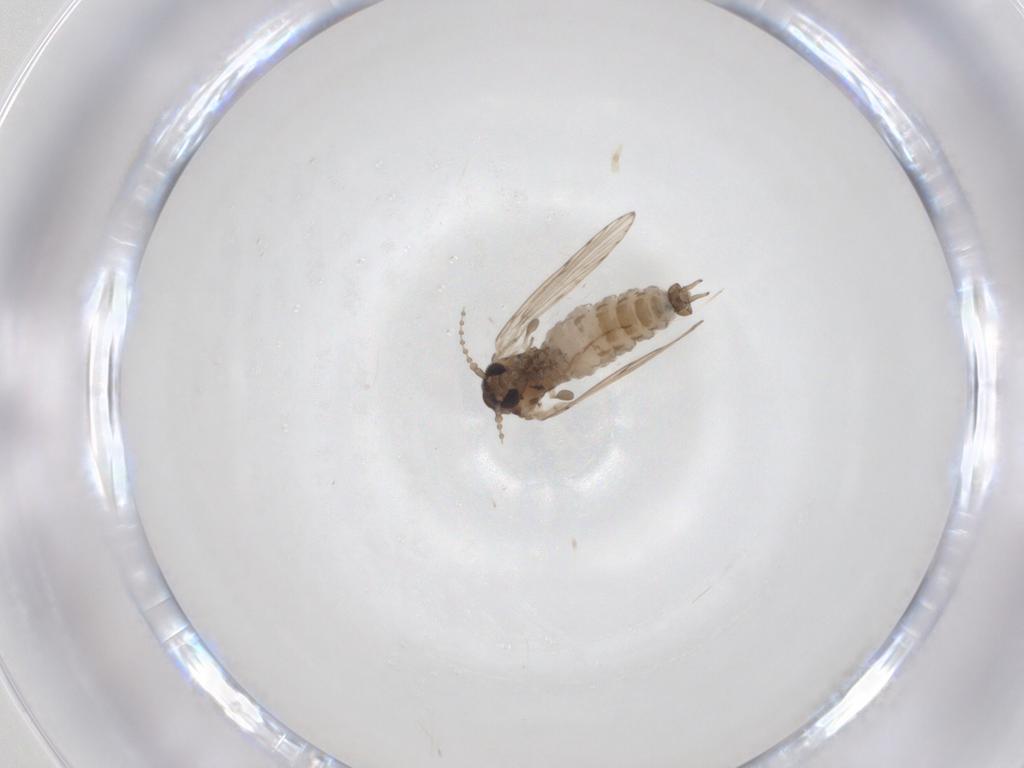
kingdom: Animalia
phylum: Arthropoda
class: Insecta
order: Diptera
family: Psychodidae
